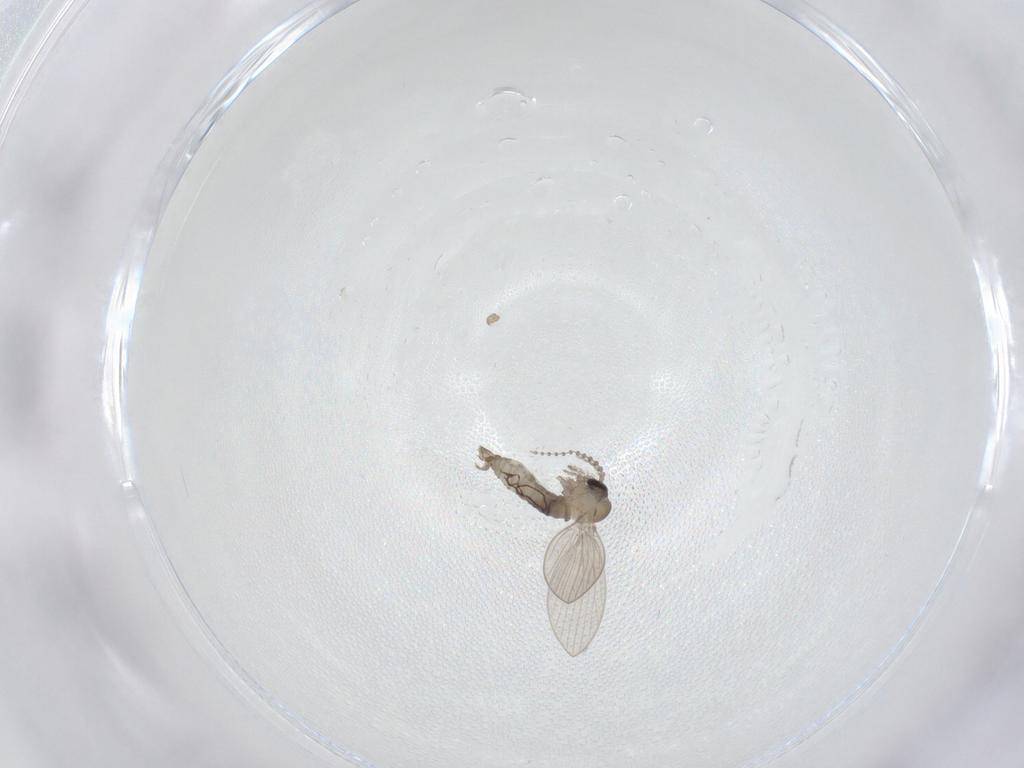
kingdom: Animalia
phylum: Arthropoda
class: Insecta
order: Diptera
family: Psychodidae
